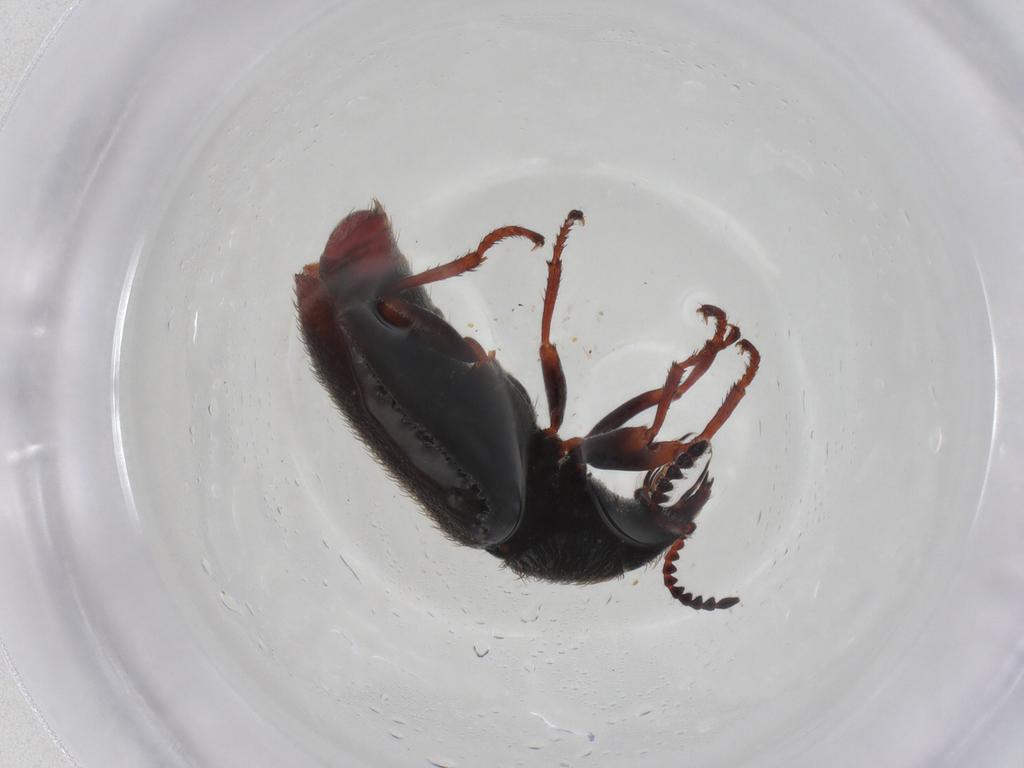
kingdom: Animalia
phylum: Arthropoda
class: Insecta
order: Coleoptera
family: Melyridae
